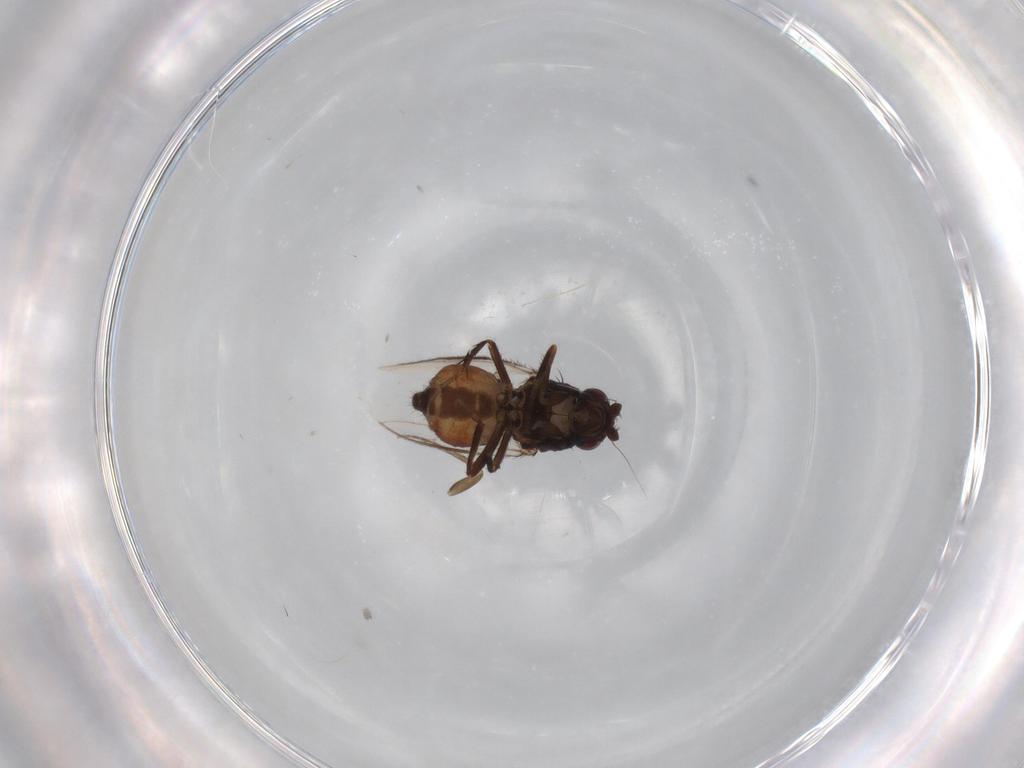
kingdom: Animalia
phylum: Arthropoda
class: Insecta
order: Diptera
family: Sphaeroceridae
